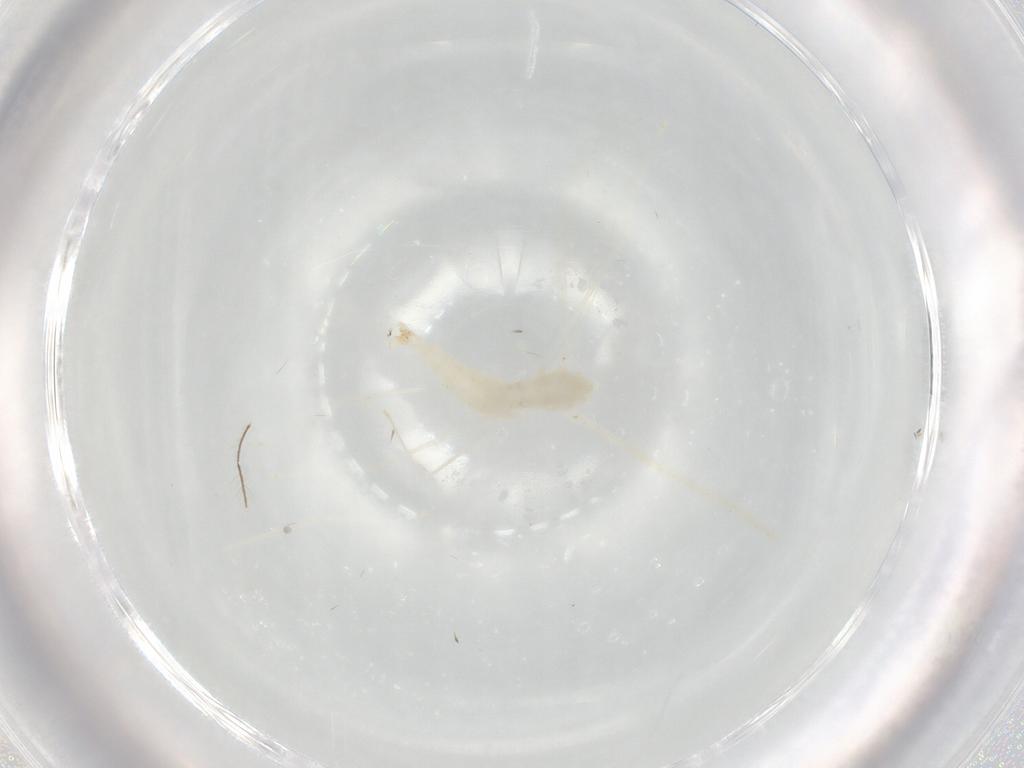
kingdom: Animalia
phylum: Arthropoda
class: Insecta
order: Diptera
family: Cecidomyiidae
